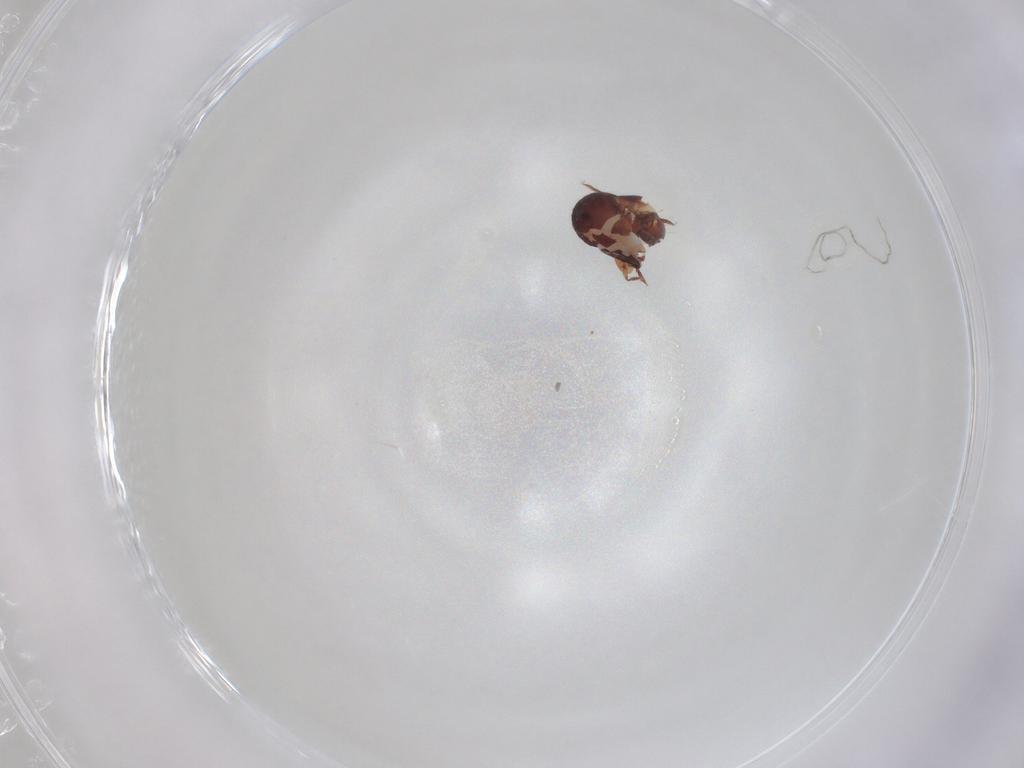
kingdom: Animalia
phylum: Arthropoda
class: Arachnida
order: Sarcoptiformes
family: Humerobatidae
